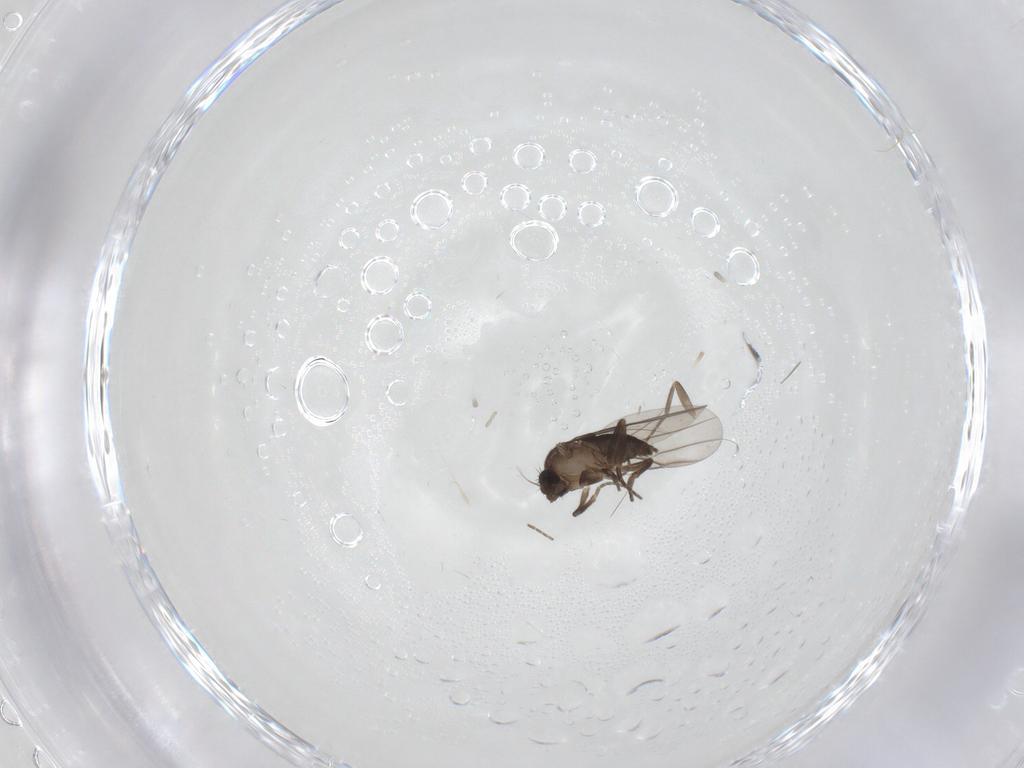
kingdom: Animalia
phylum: Arthropoda
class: Insecta
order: Diptera
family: Phoridae
